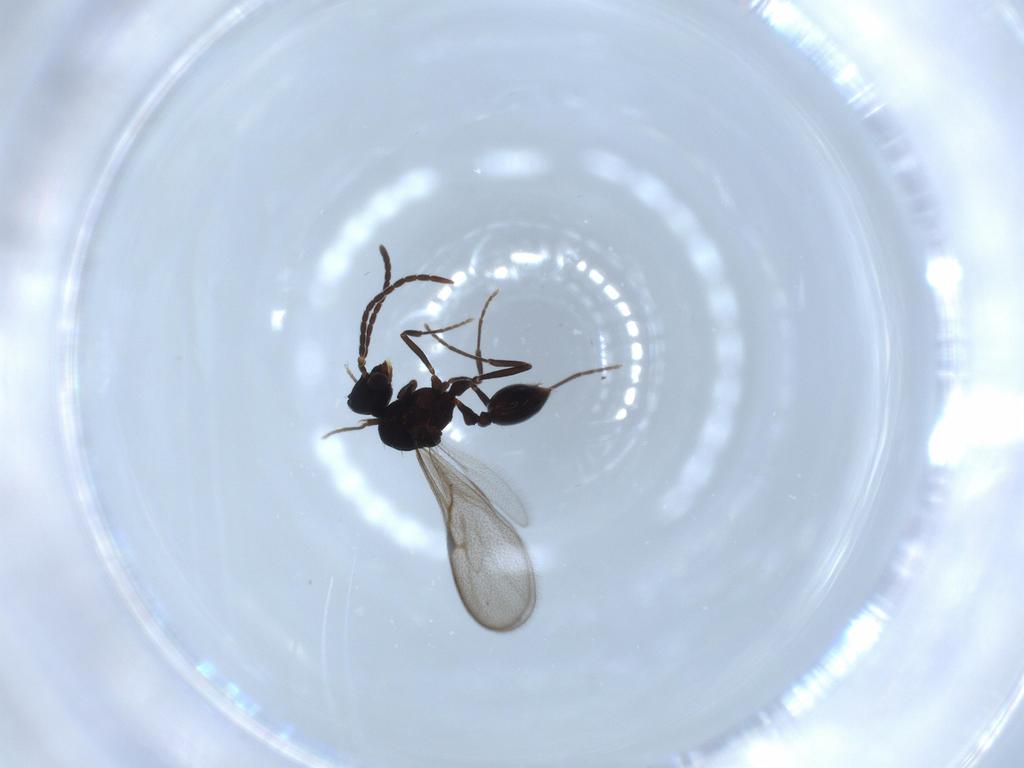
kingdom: Animalia
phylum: Arthropoda
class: Insecta
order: Hymenoptera
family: Formicidae
